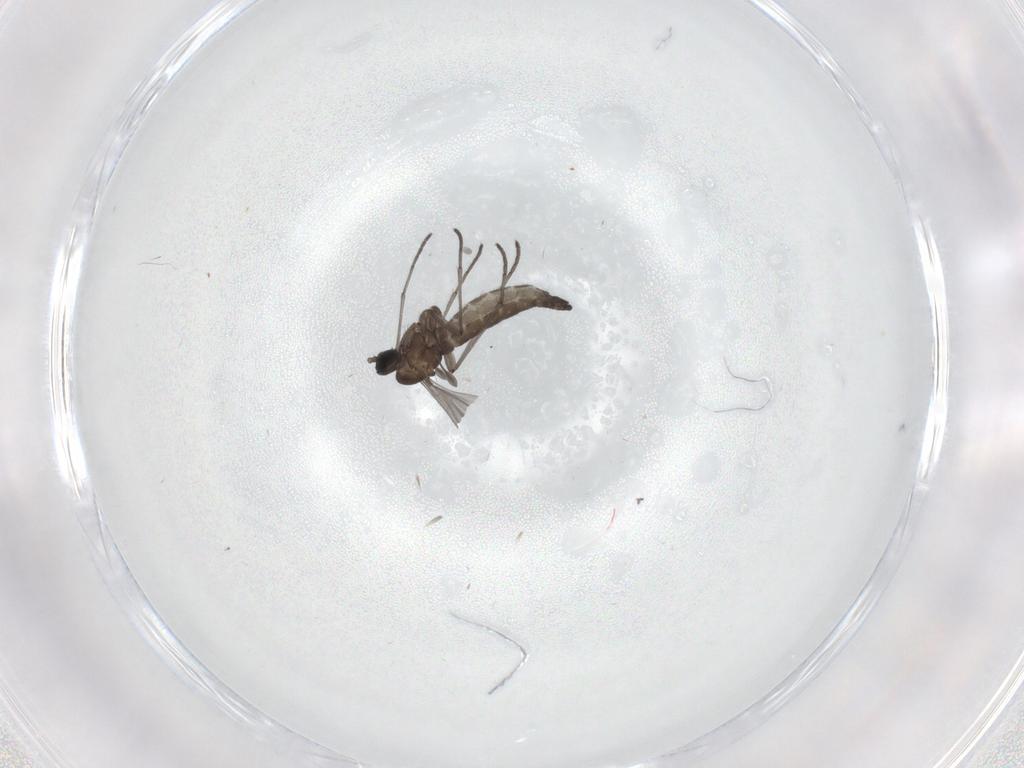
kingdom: Animalia
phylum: Arthropoda
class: Insecta
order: Diptera
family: Sciaridae
